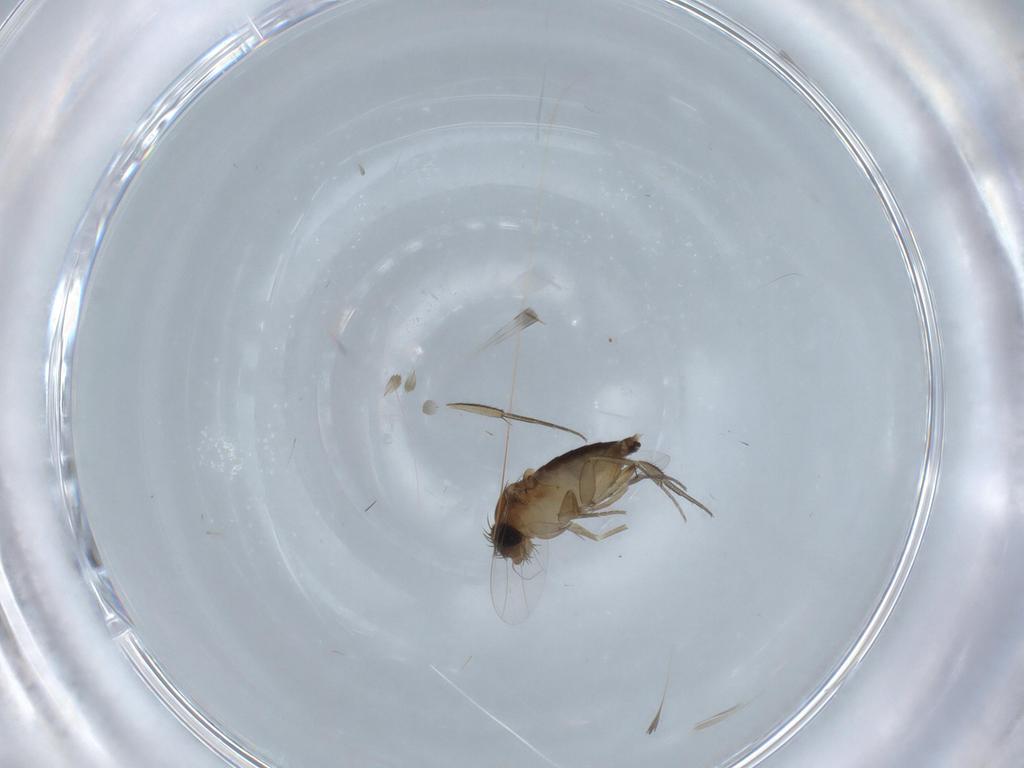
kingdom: Animalia
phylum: Arthropoda
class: Insecta
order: Diptera
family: Chloropidae
